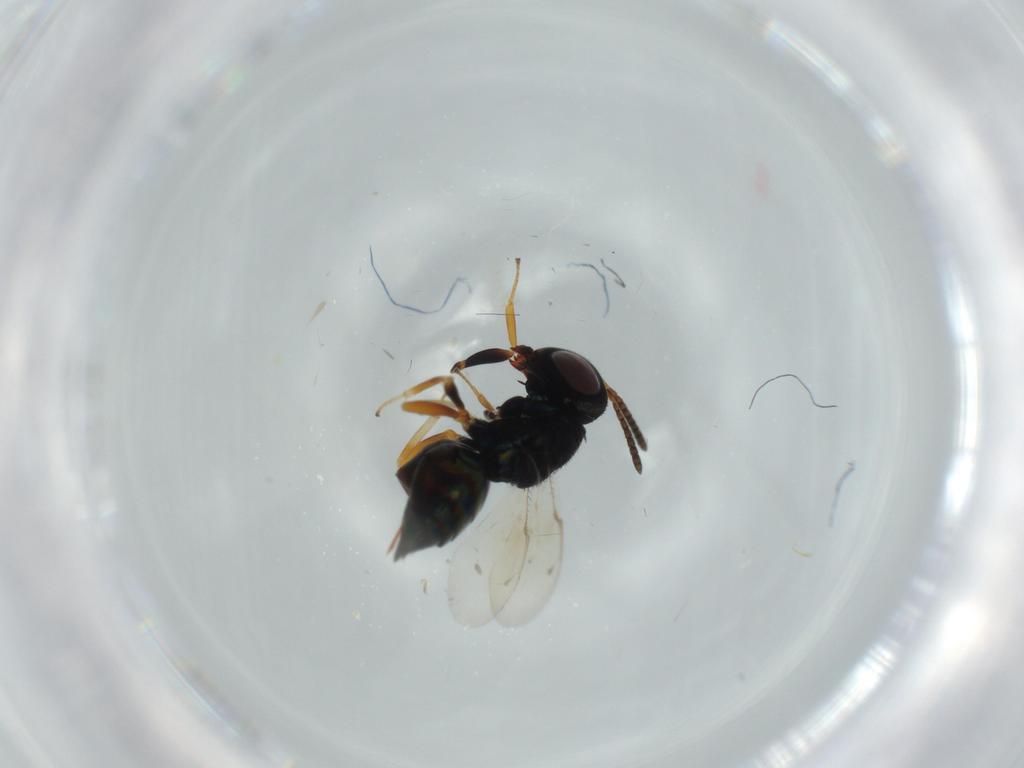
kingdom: Animalia
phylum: Arthropoda
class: Insecta
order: Hymenoptera
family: Pteromalidae
